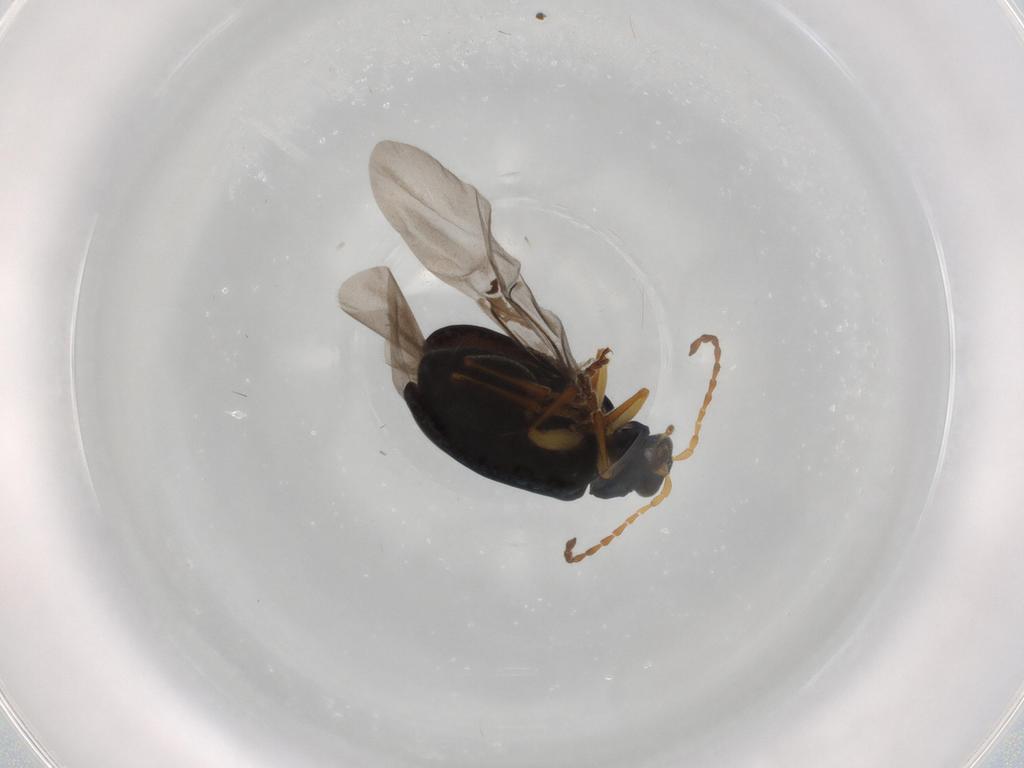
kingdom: Animalia
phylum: Arthropoda
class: Insecta
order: Coleoptera
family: Chrysomelidae
